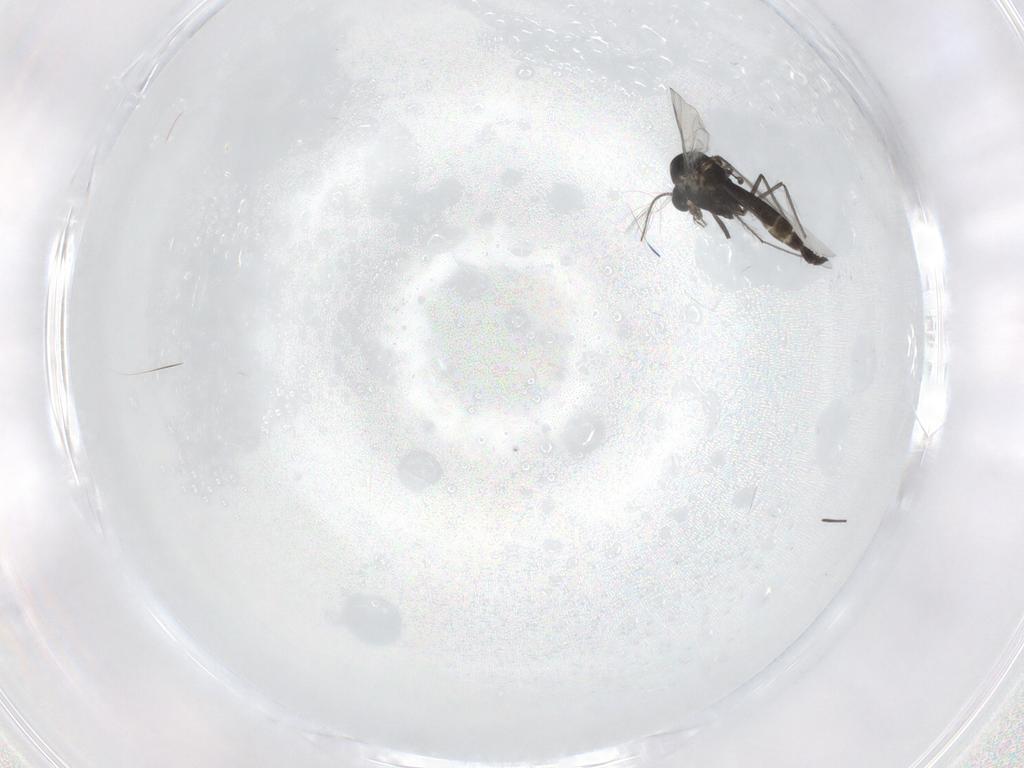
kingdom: Animalia
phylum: Arthropoda
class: Insecta
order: Diptera
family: Chironomidae
